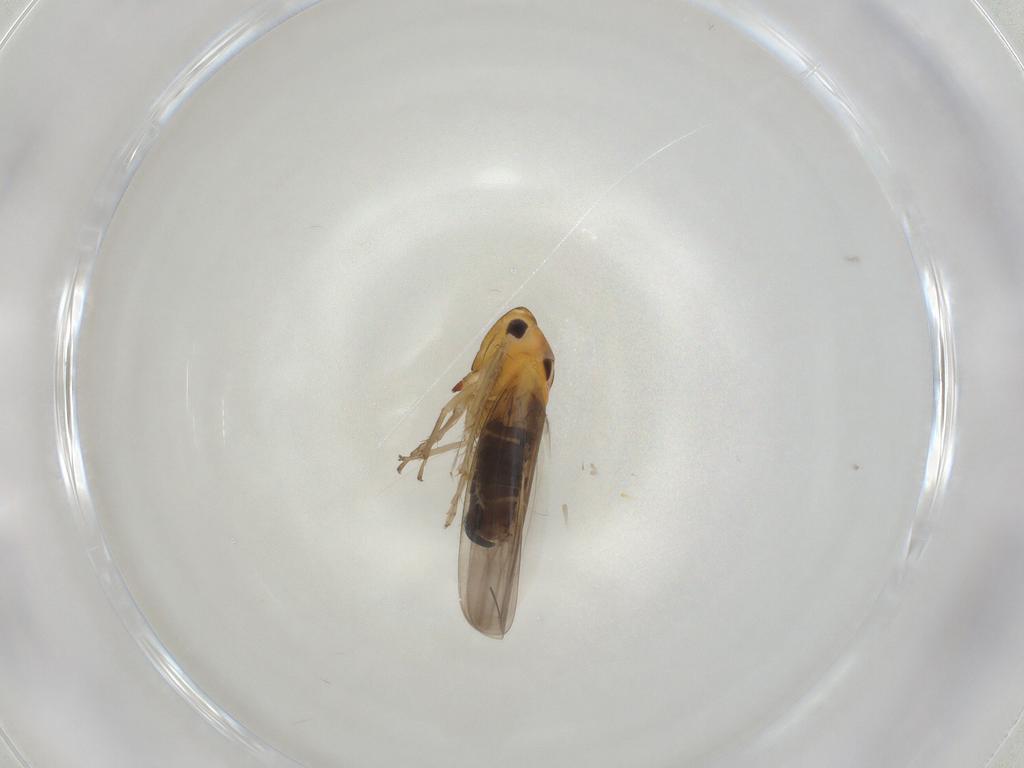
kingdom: Animalia
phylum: Arthropoda
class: Insecta
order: Hemiptera
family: Cicadellidae
